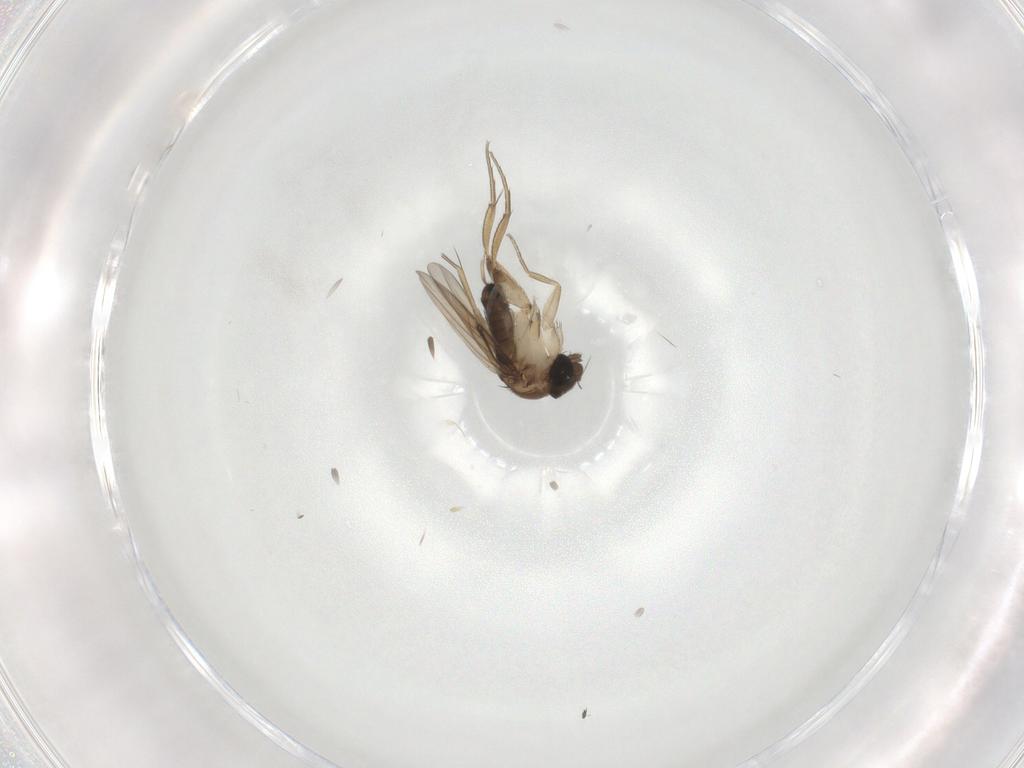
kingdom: Animalia
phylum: Arthropoda
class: Insecta
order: Diptera
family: Phoridae
